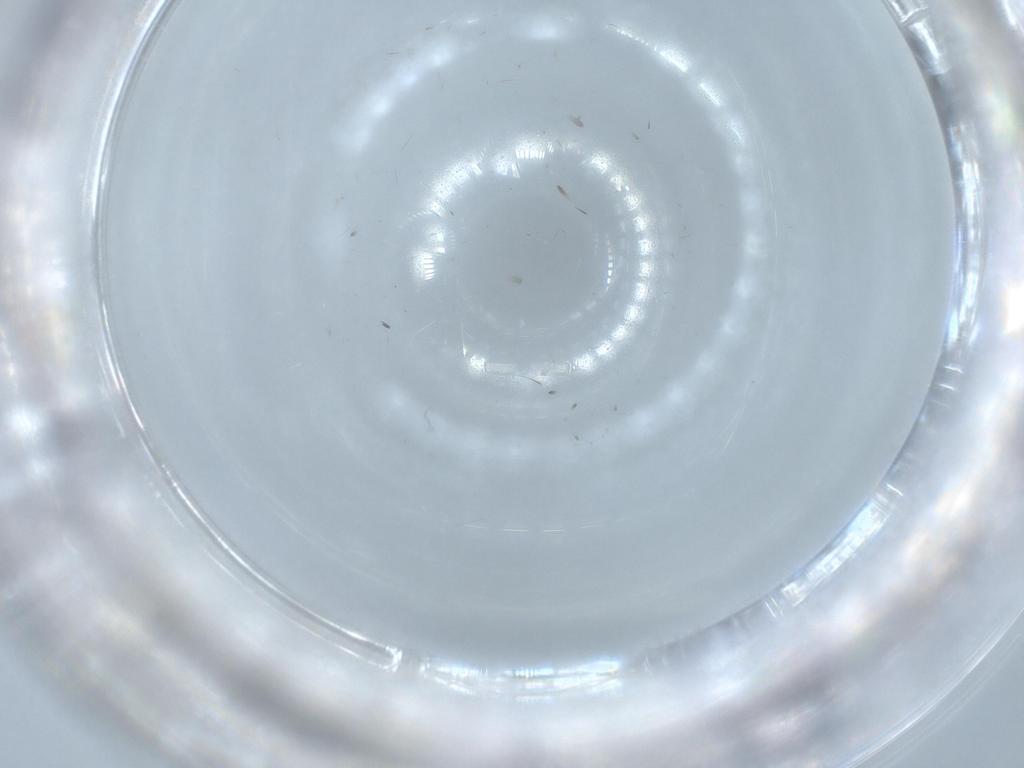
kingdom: Animalia
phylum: Arthropoda
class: Insecta
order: Diptera
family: Sciaridae
